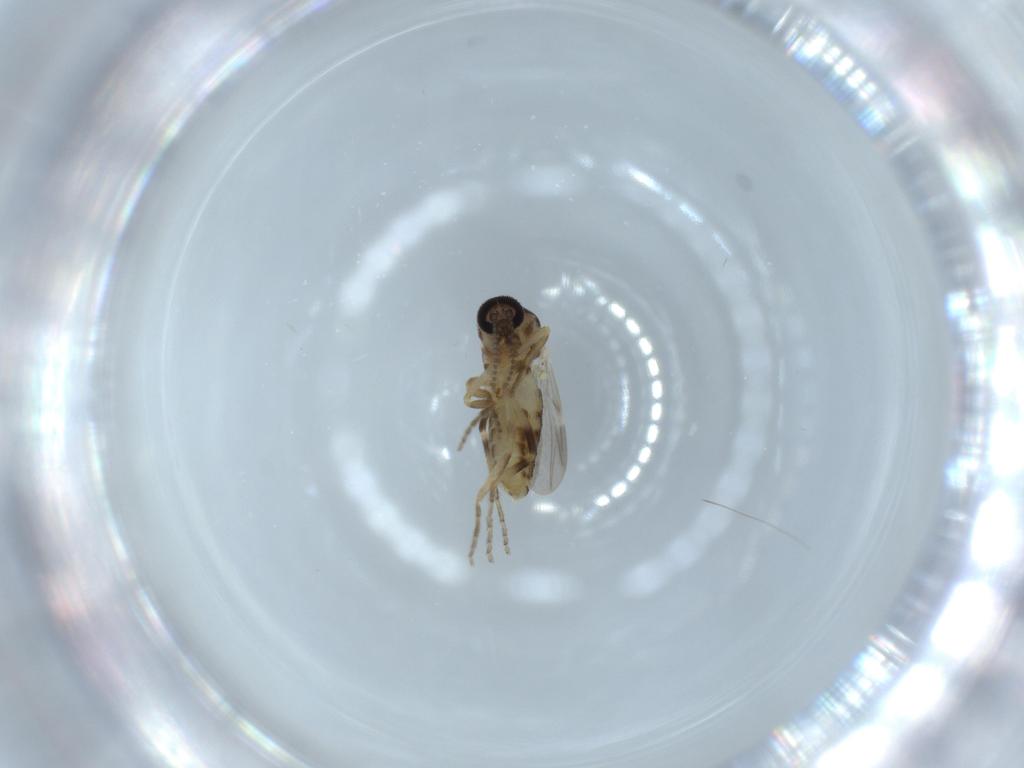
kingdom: Animalia
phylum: Arthropoda
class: Insecta
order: Diptera
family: Ceratopogonidae
